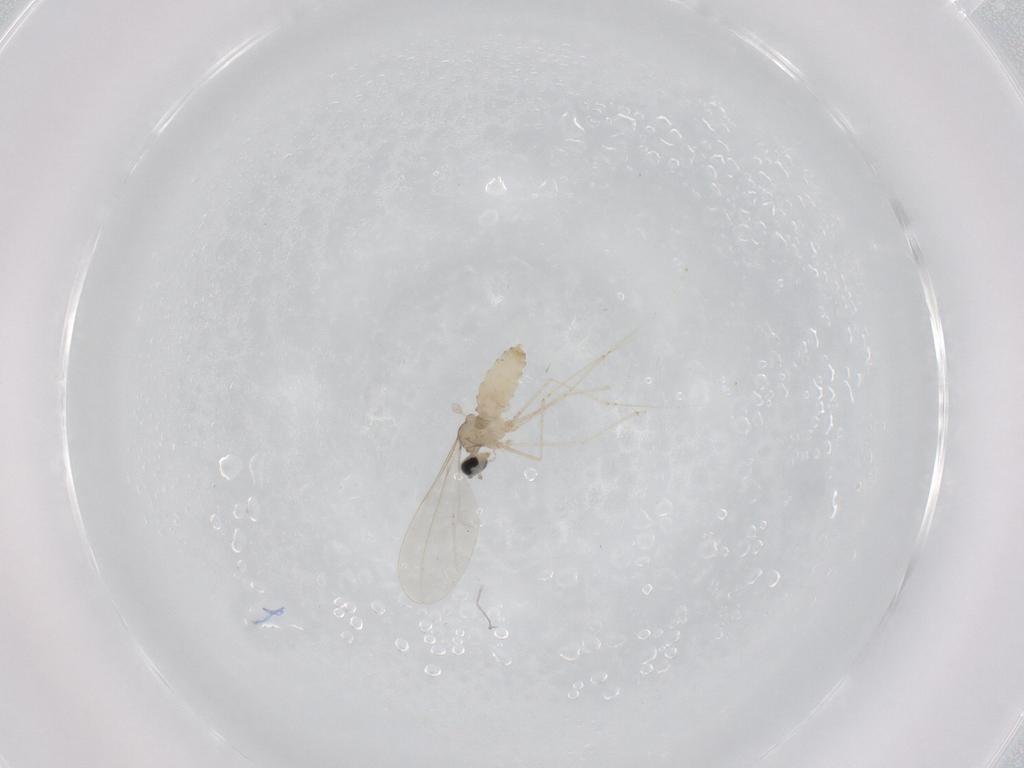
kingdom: Animalia
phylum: Arthropoda
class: Insecta
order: Diptera
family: Cecidomyiidae
